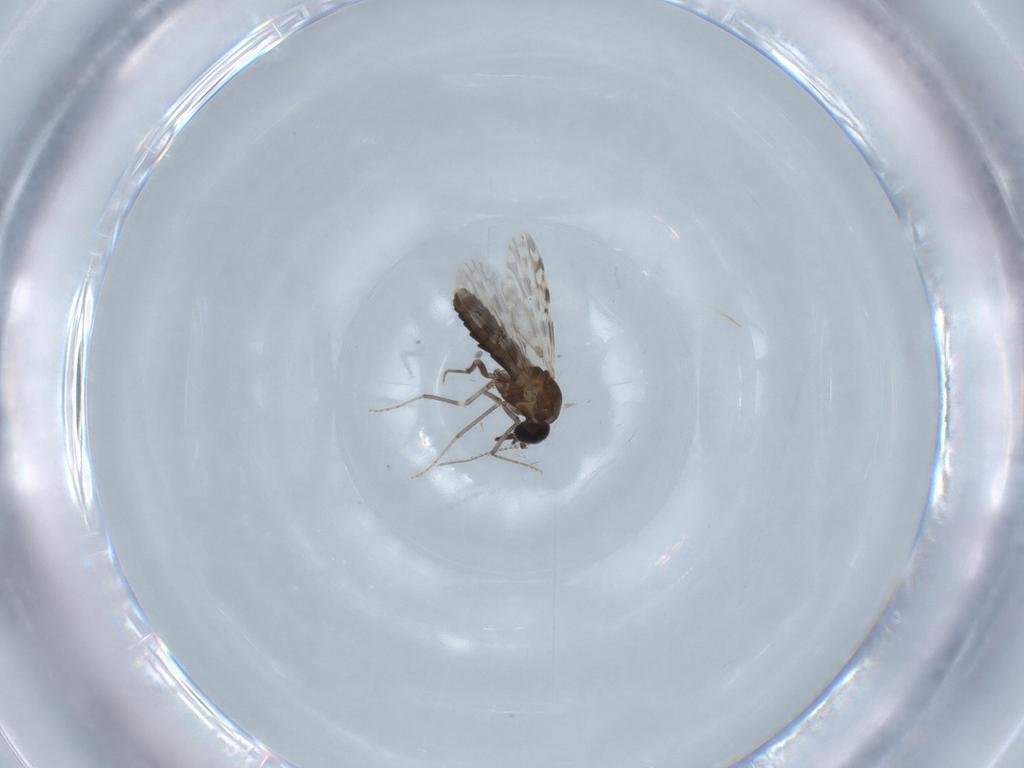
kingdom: Animalia
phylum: Arthropoda
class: Insecta
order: Diptera
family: Ceratopogonidae
